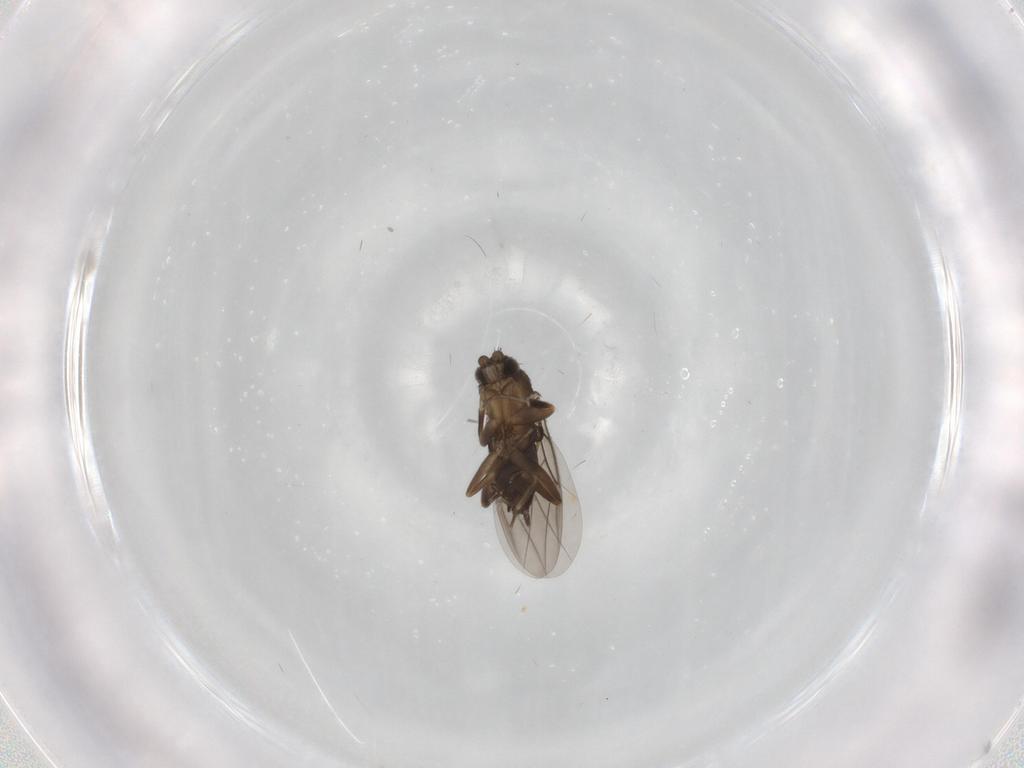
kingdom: Animalia
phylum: Arthropoda
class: Insecta
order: Diptera
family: Phoridae
